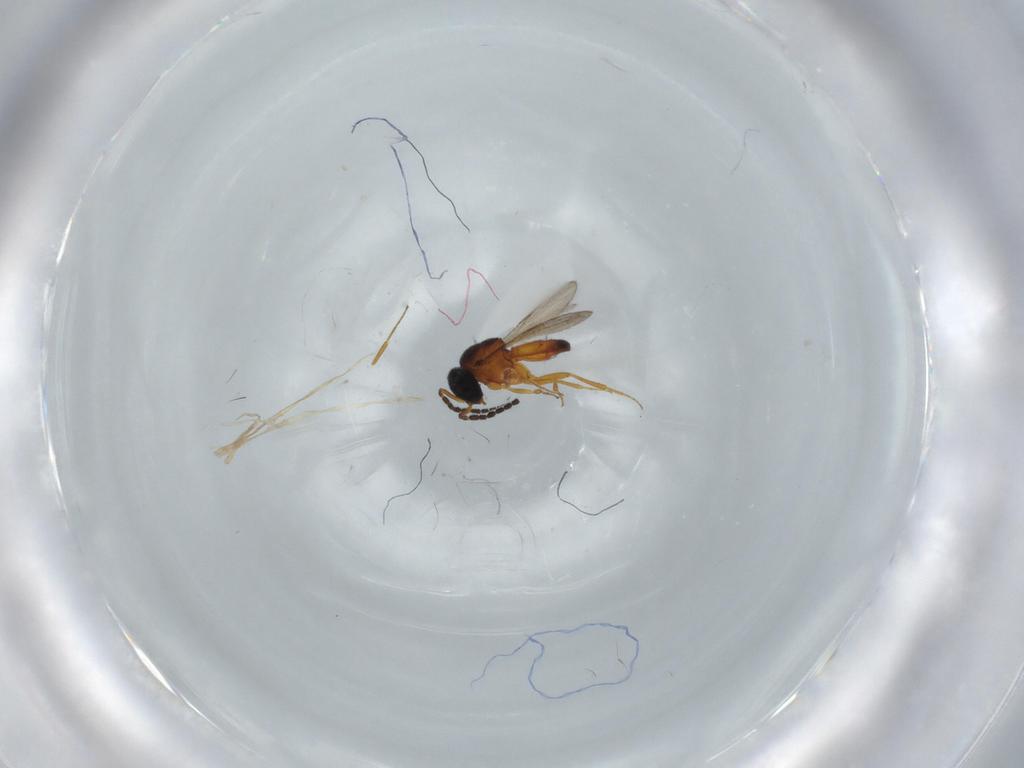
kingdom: Animalia
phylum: Arthropoda
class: Insecta
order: Hymenoptera
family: Scelionidae
